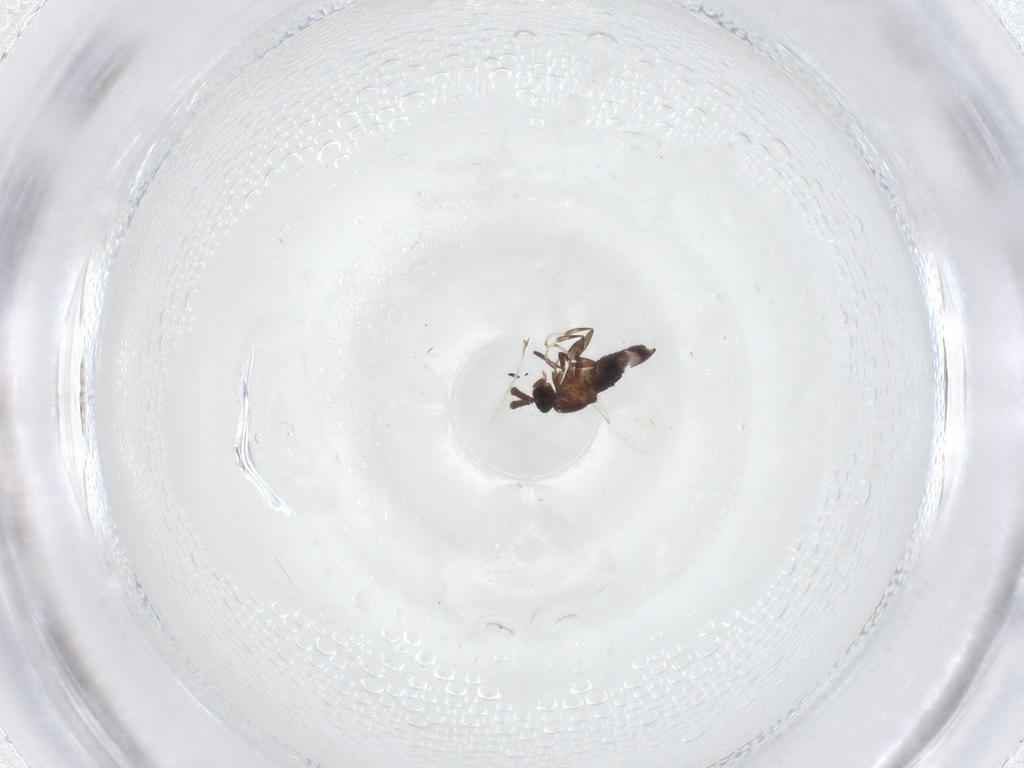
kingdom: Animalia
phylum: Arthropoda
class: Insecta
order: Diptera
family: Scatopsidae
